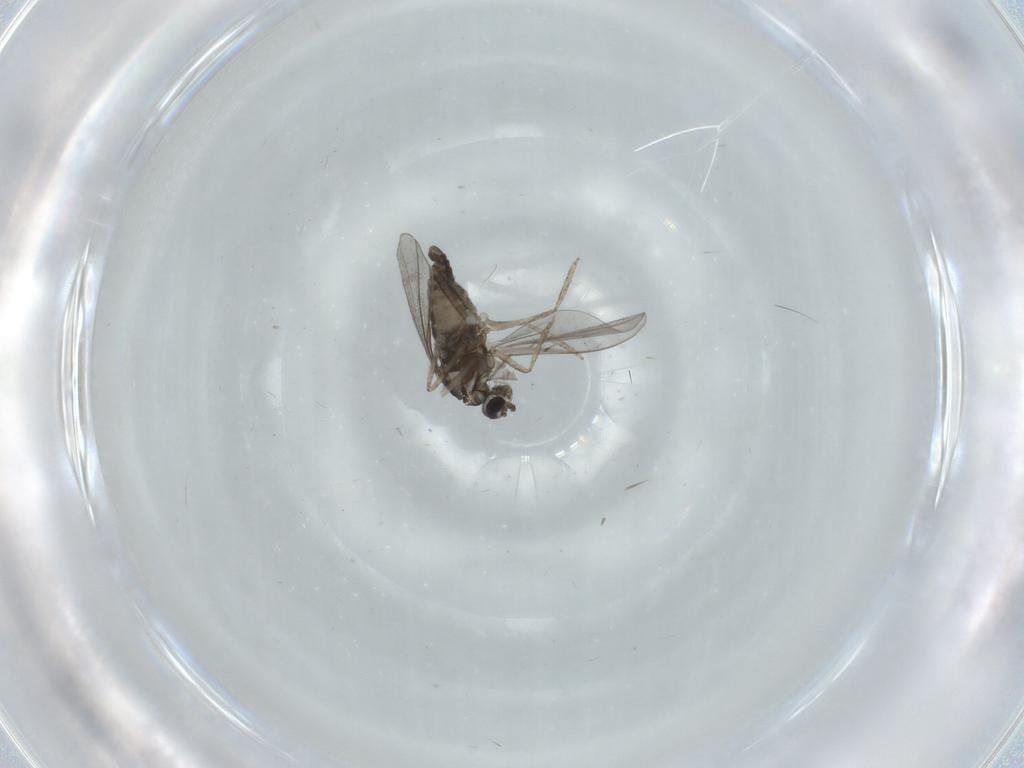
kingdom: Animalia
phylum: Arthropoda
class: Insecta
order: Diptera
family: Cecidomyiidae
